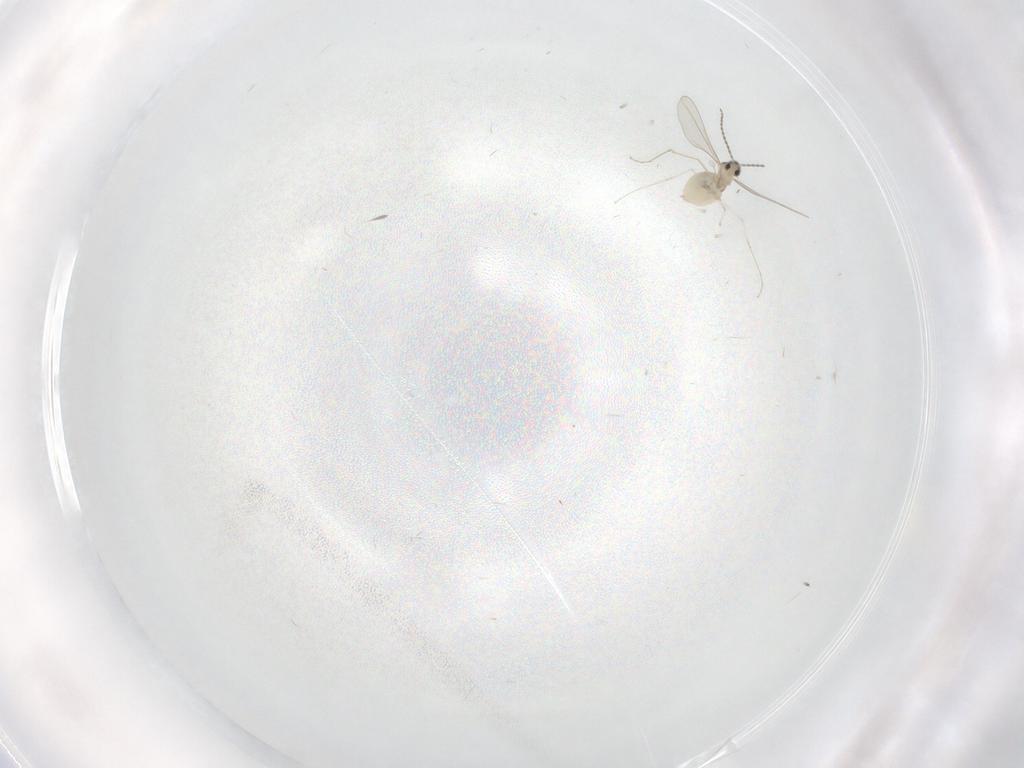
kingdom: Animalia
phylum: Arthropoda
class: Insecta
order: Diptera
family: Cecidomyiidae
